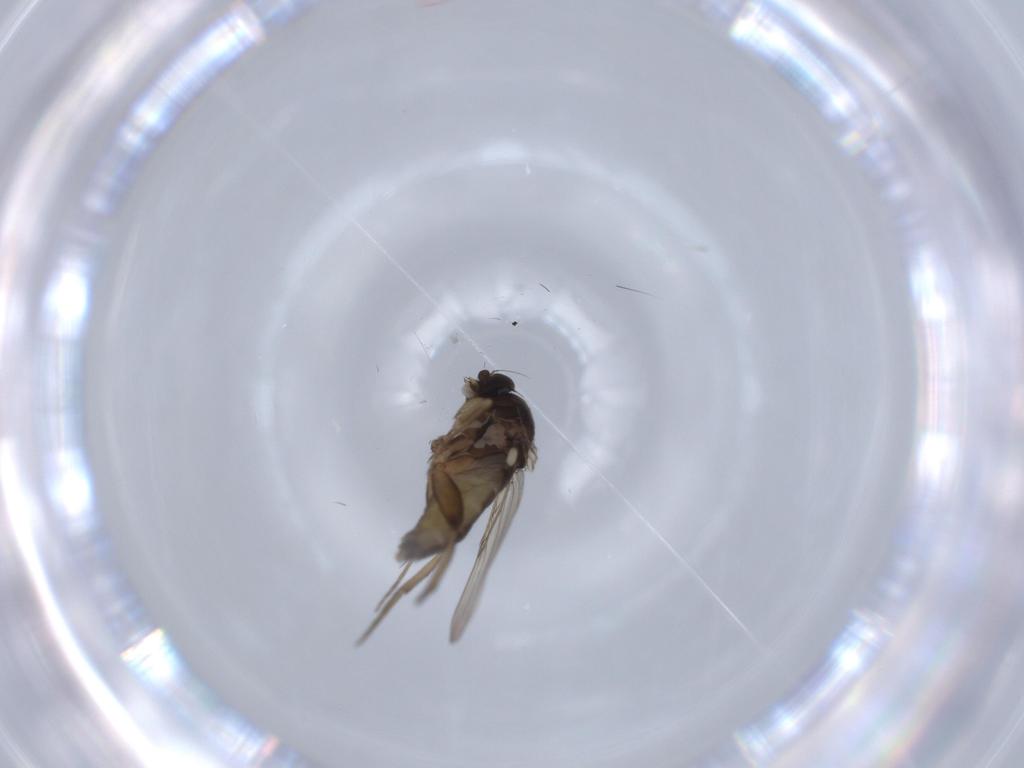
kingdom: Animalia
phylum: Arthropoda
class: Insecta
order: Diptera
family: Phoridae
